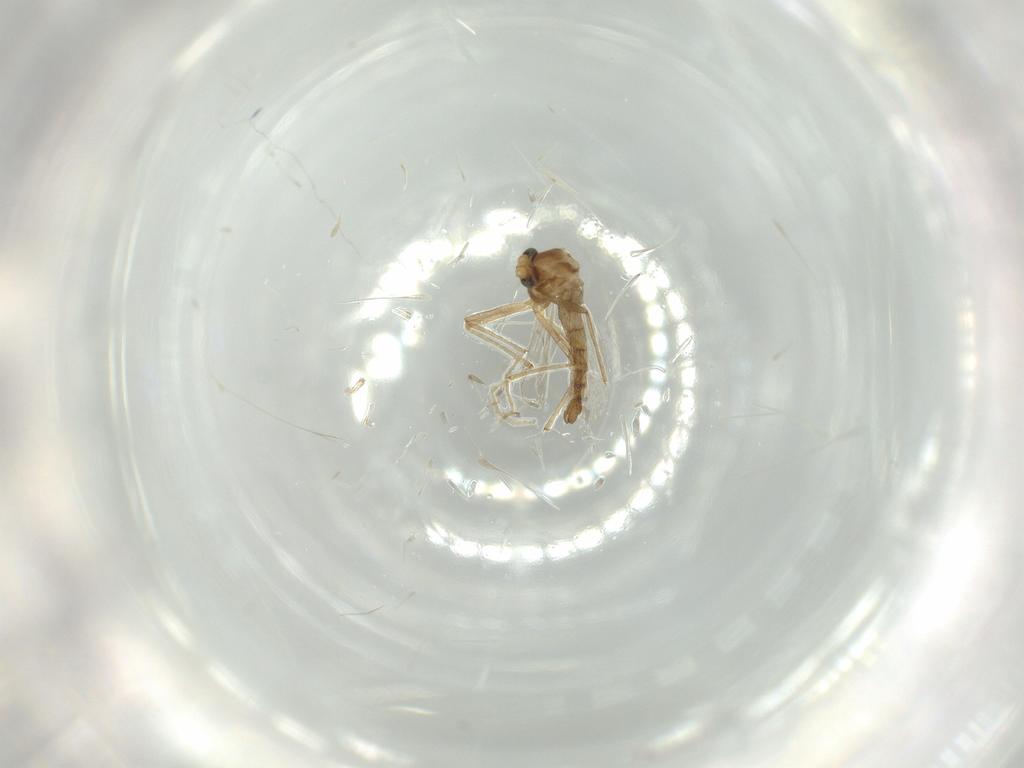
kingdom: Animalia
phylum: Arthropoda
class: Insecta
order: Diptera
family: Chironomidae
